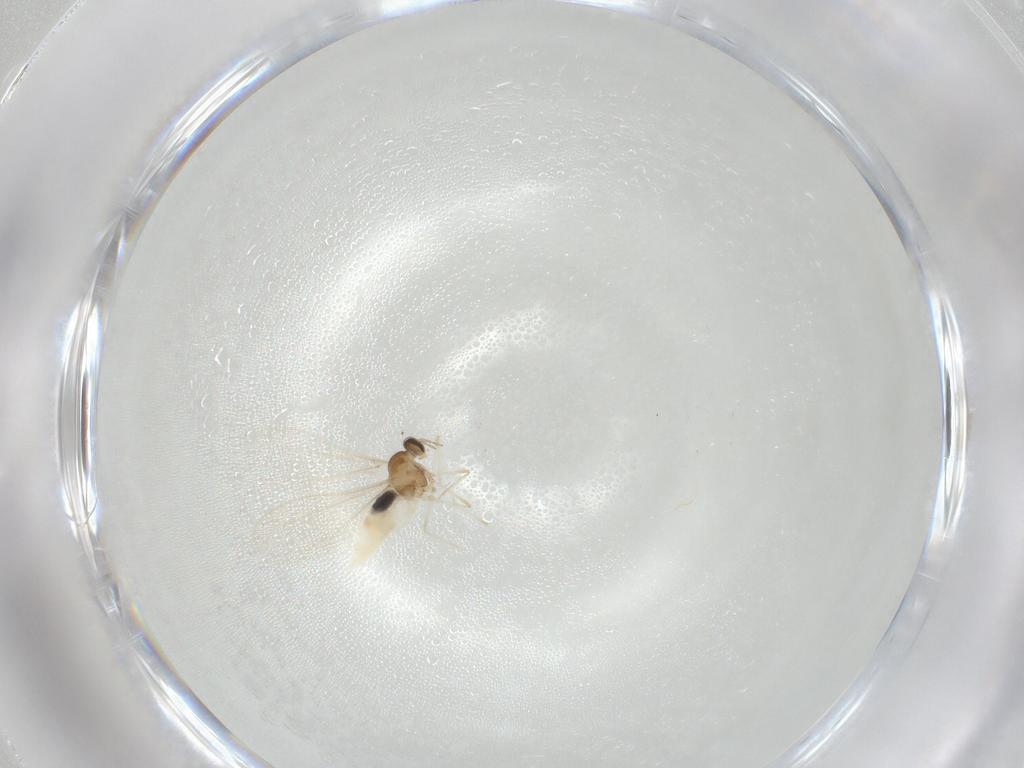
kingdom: Animalia
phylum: Arthropoda
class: Insecta
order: Diptera
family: Cecidomyiidae
